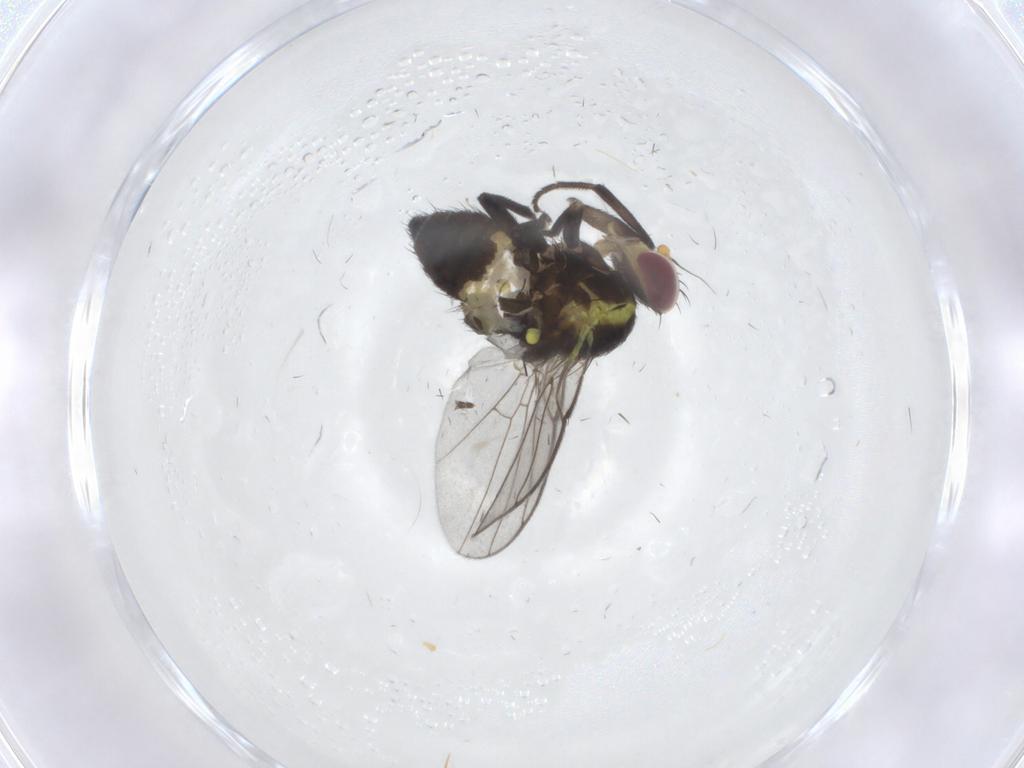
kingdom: Animalia
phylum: Arthropoda
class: Insecta
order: Diptera
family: Agromyzidae
